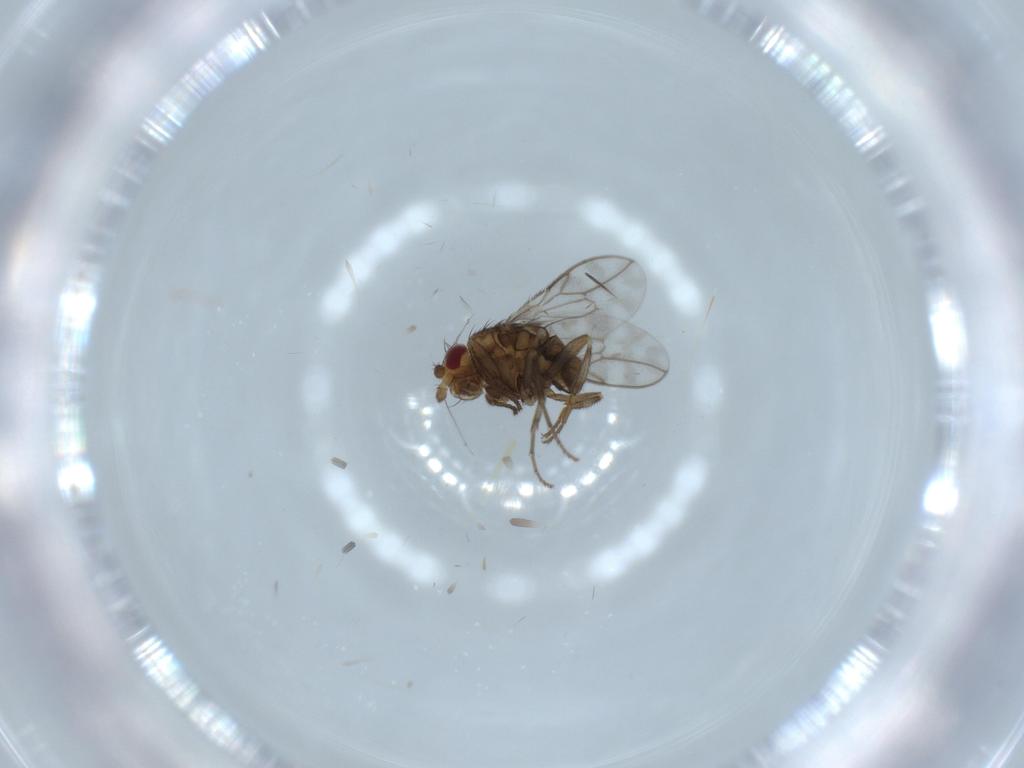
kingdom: Animalia
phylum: Arthropoda
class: Insecta
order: Diptera
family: Sphaeroceridae
